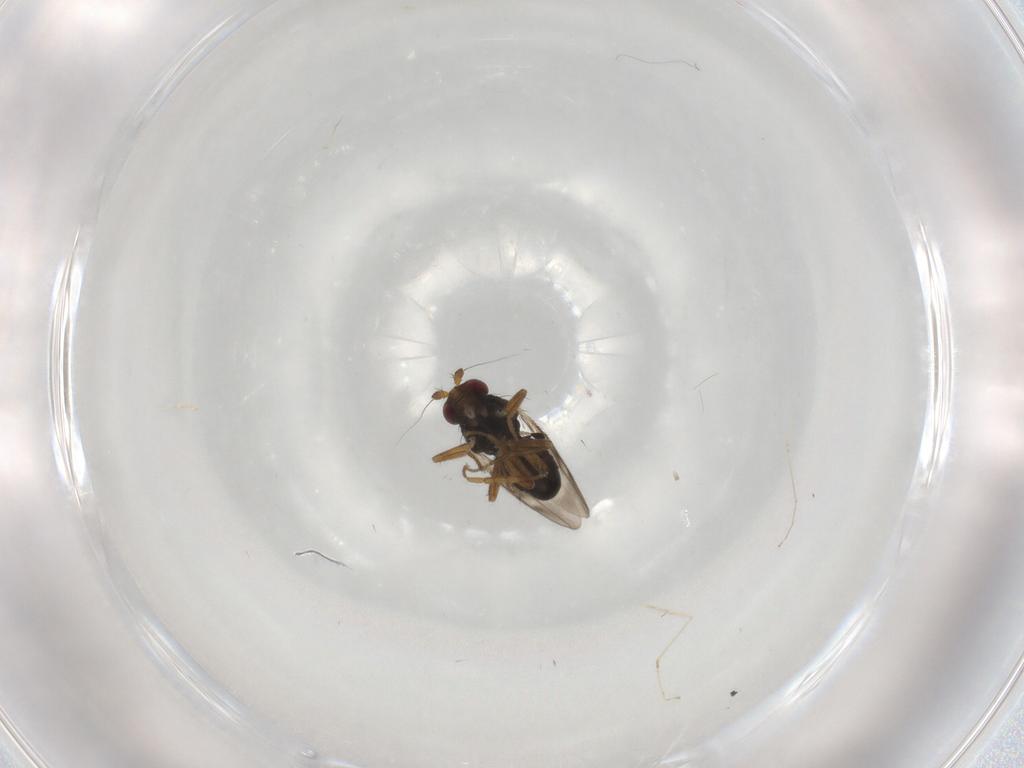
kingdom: Animalia
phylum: Arthropoda
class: Insecta
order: Diptera
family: Sphaeroceridae
